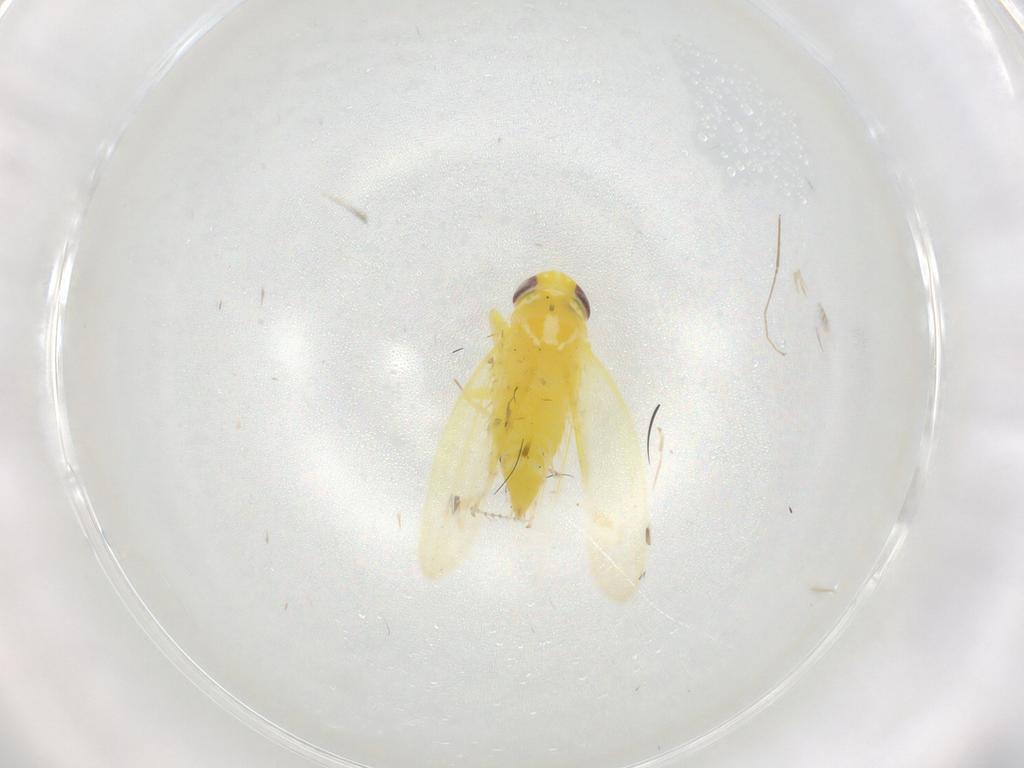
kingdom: Animalia
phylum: Arthropoda
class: Insecta
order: Hemiptera
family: Cicadellidae
